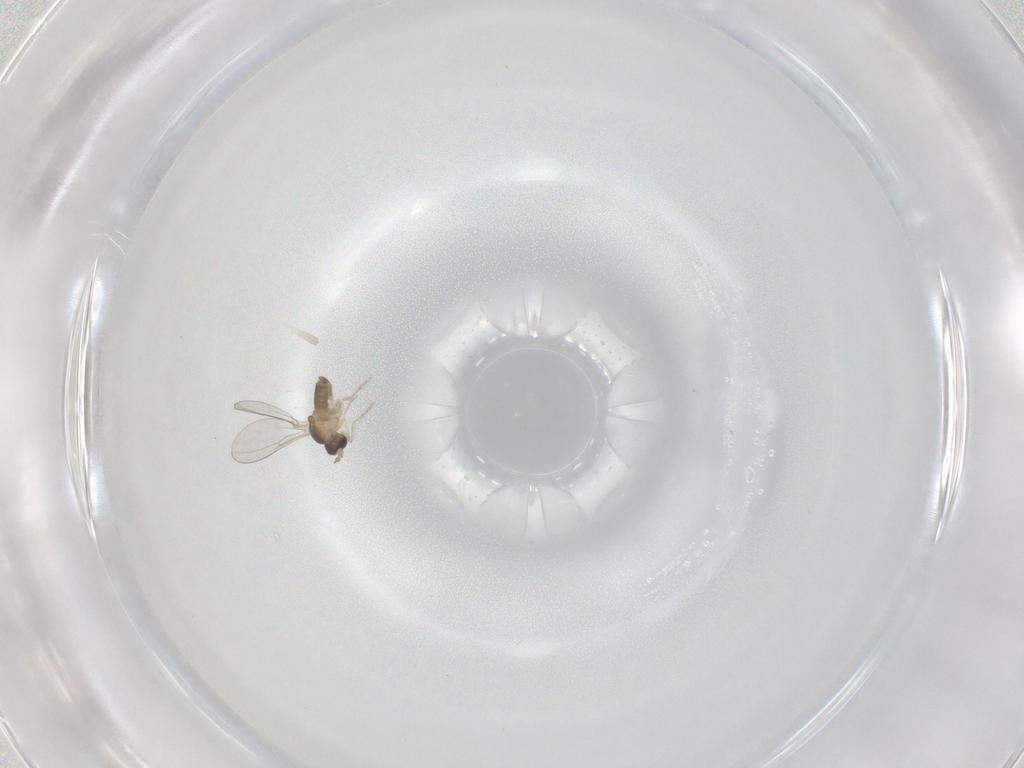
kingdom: Animalia
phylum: Arthropoda
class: Insecta
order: Diptera
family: Cecidomyiidae
